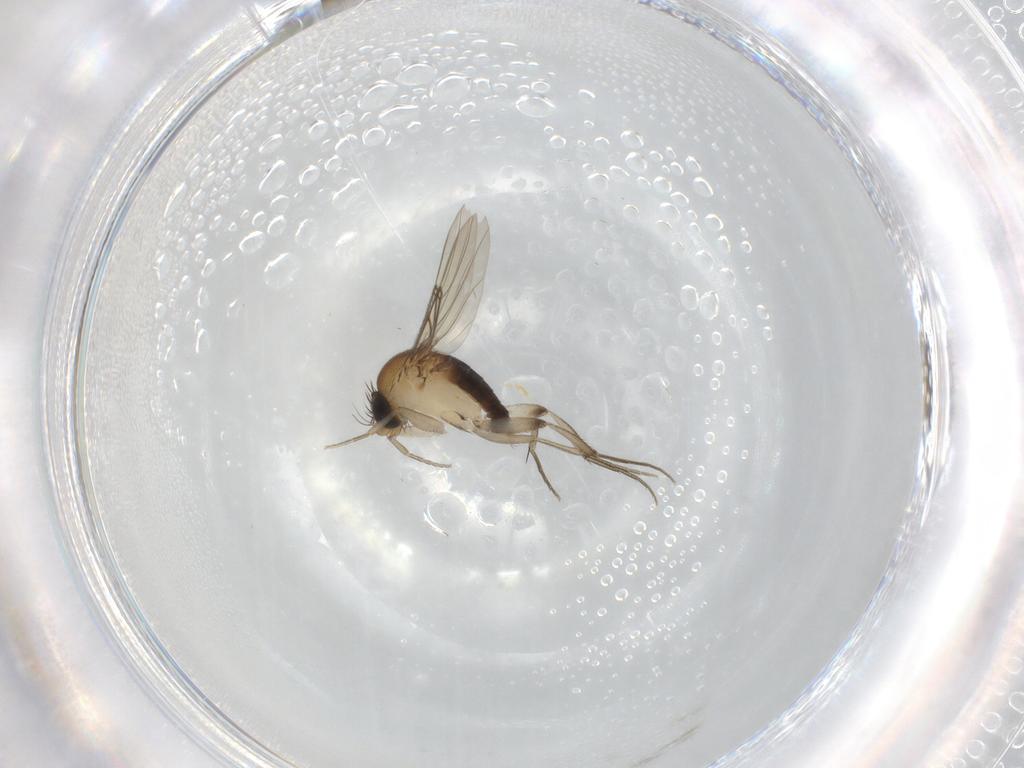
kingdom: Animalia
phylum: Arthropoda
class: Insecta
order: Diptera
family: Phoridae
